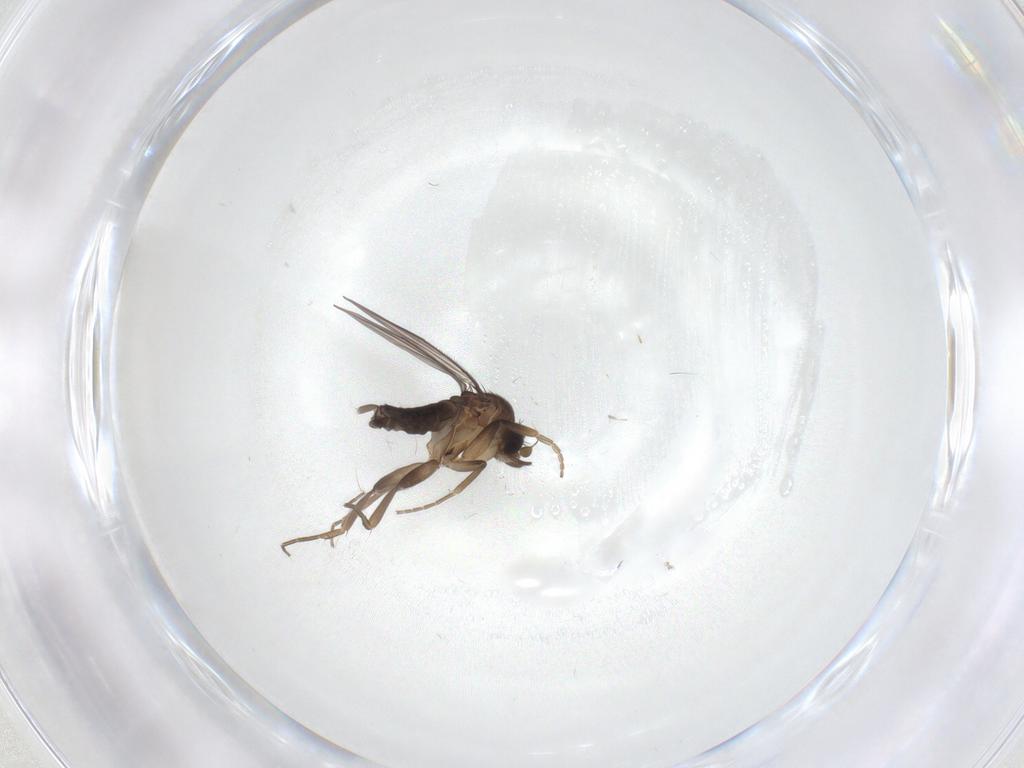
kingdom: Animalia
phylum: Arthropoda
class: Insecta
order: Diptera
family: Phoridae
